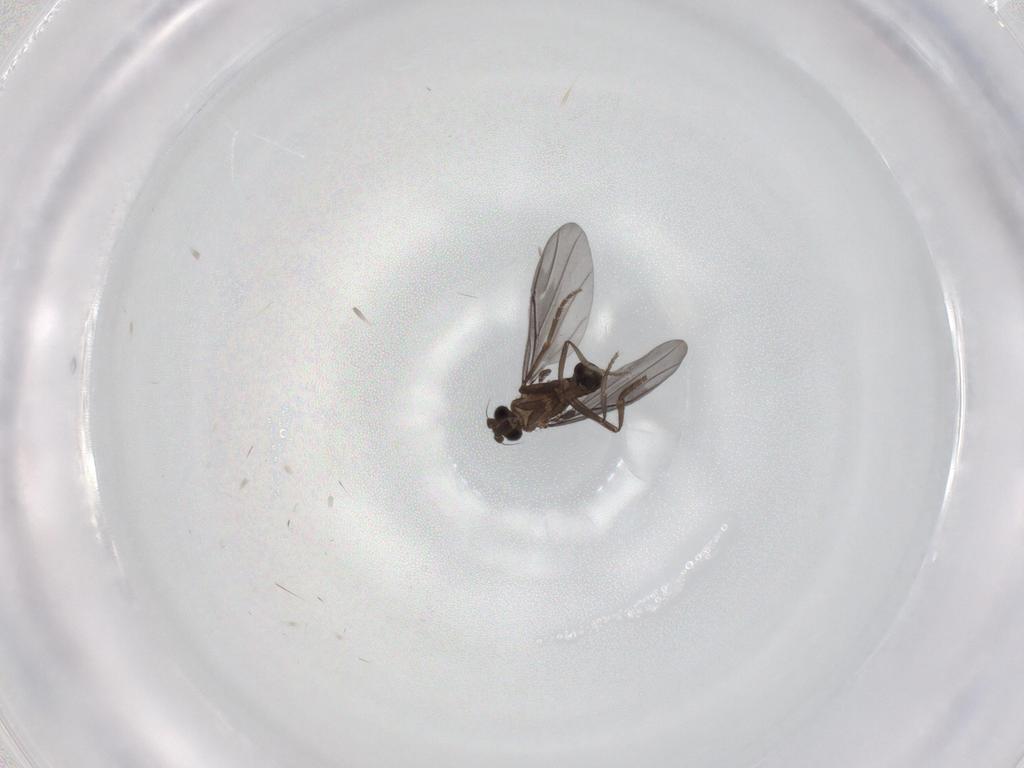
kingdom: Animalia
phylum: Arthropoda
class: Insecta
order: Diptera
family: Phoridae
